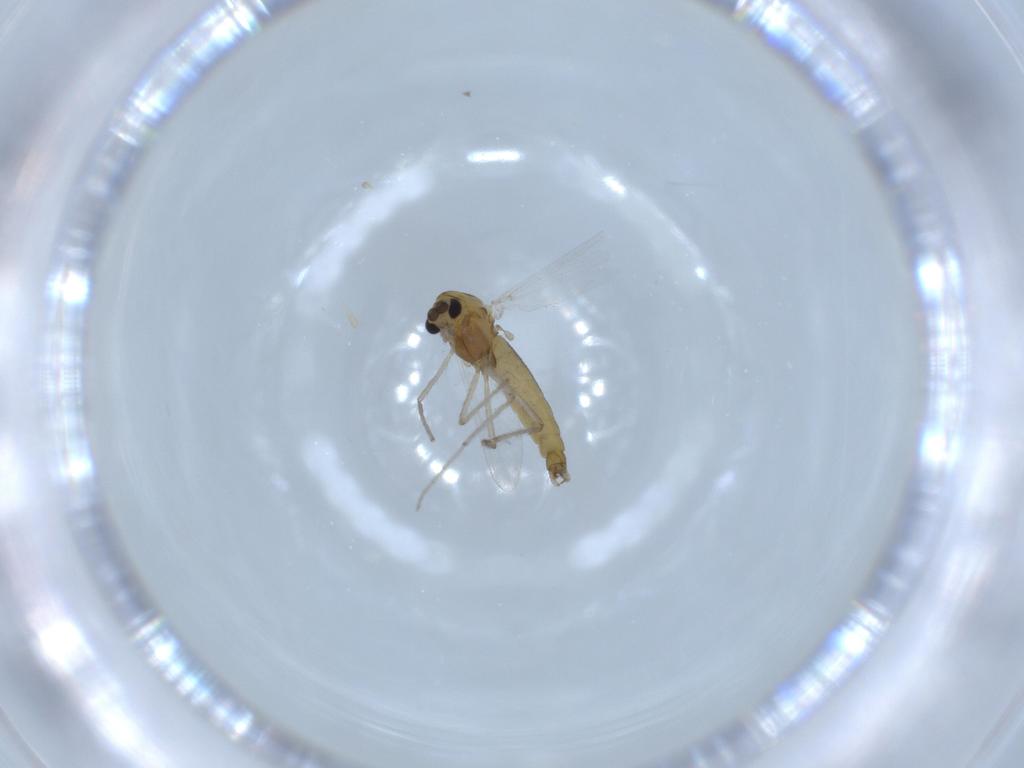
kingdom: Animalia
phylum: Arthropoda
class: Insecta
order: Diptera
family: Chironomidae
